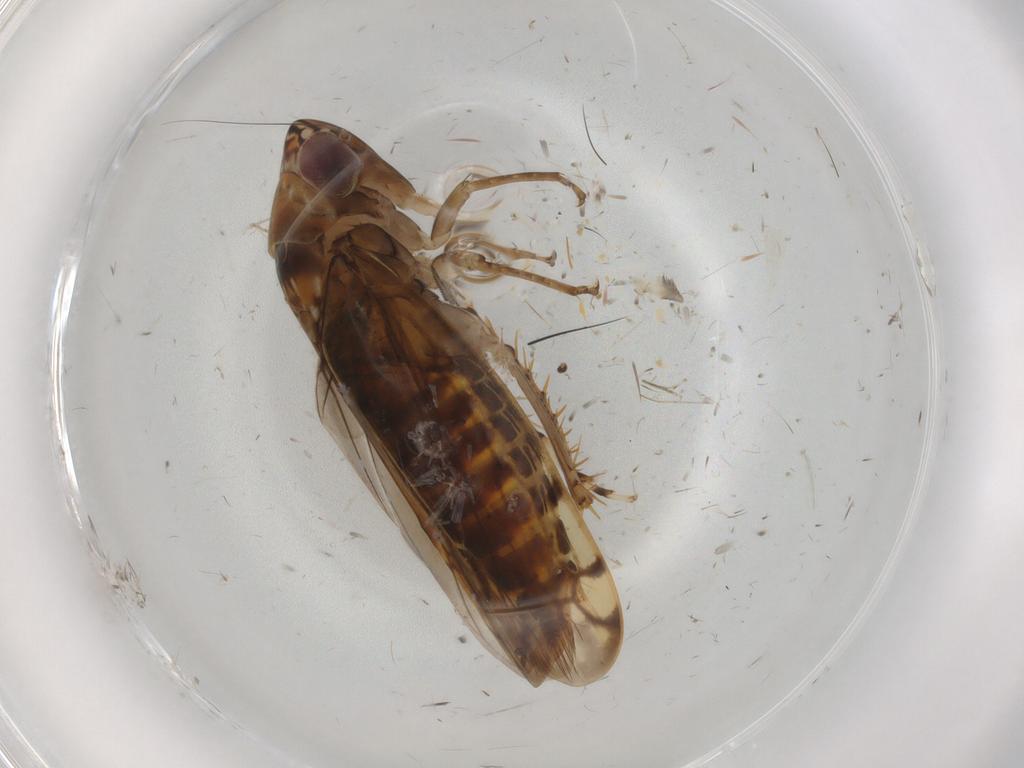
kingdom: Animalia
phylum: Arthropoda
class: Insecta
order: Hemiptera
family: Cicadellidae
